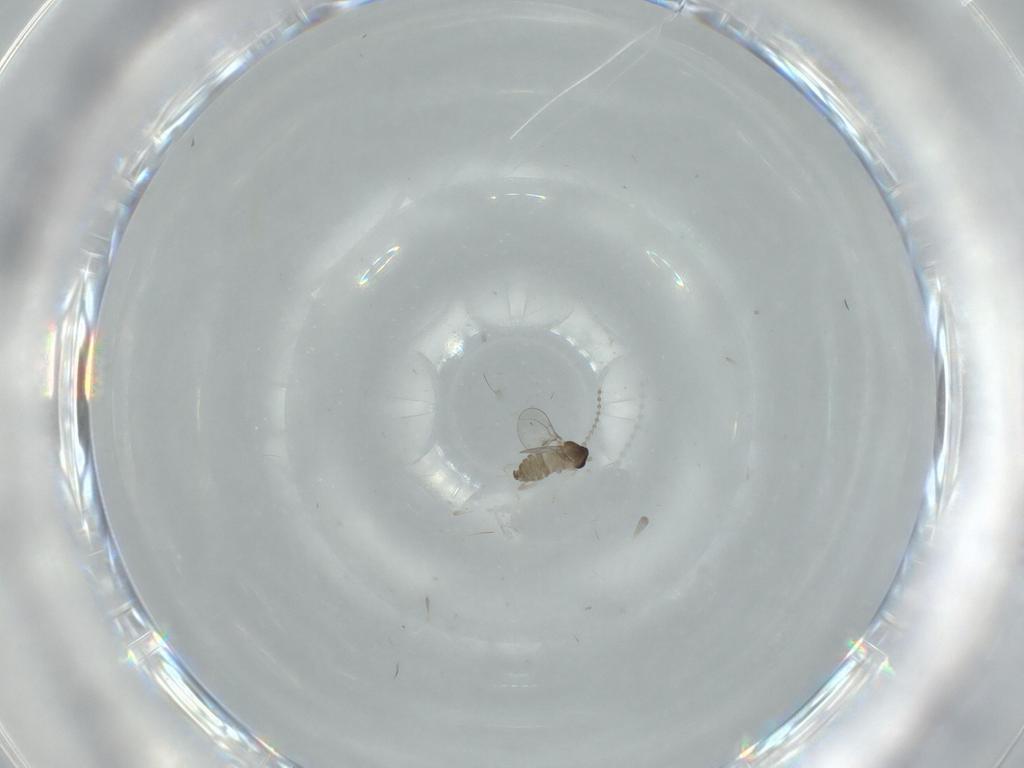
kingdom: Animalia
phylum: Arthropoda
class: Insecta
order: Diptera
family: Cecidomyiidae
